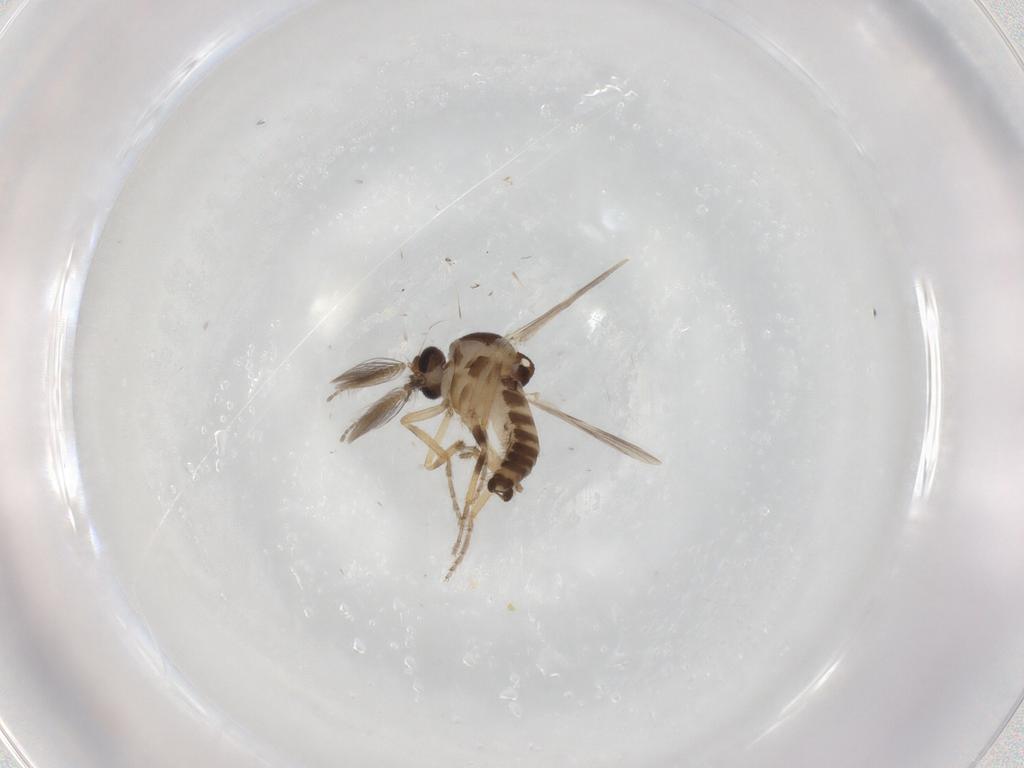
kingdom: Animalia
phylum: Arthropoda
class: Insecta
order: Diptera
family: Ceratopogonidae
